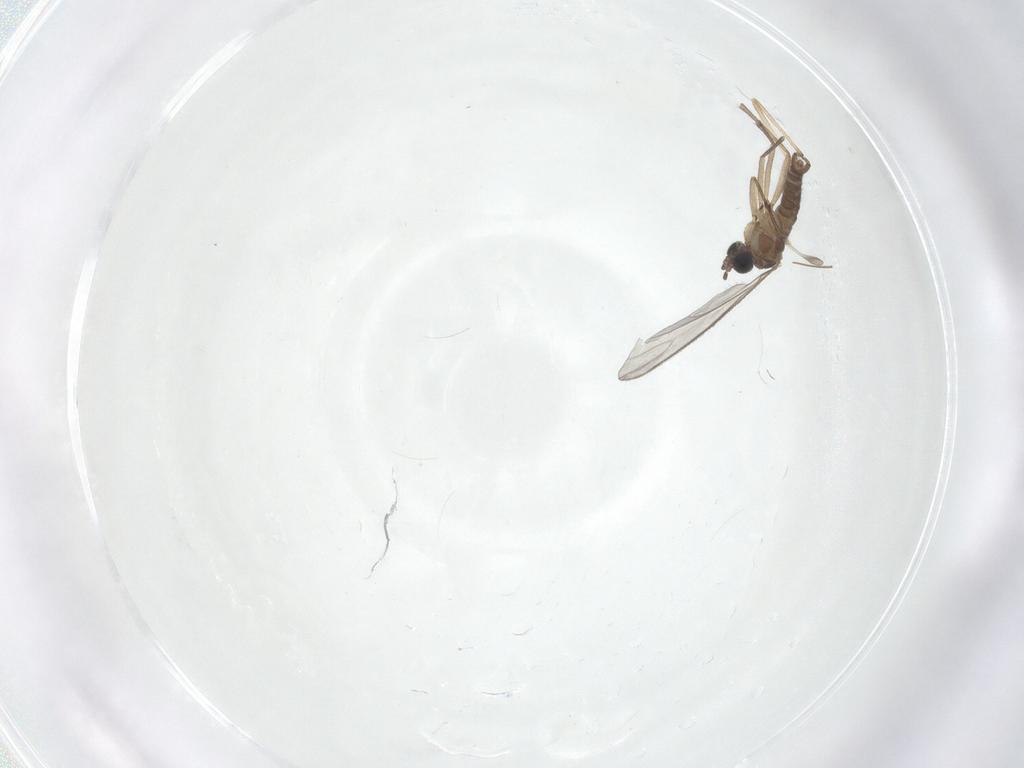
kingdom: Animalia
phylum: Arthropoda
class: Insecta
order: Diptera
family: Sciaridae
